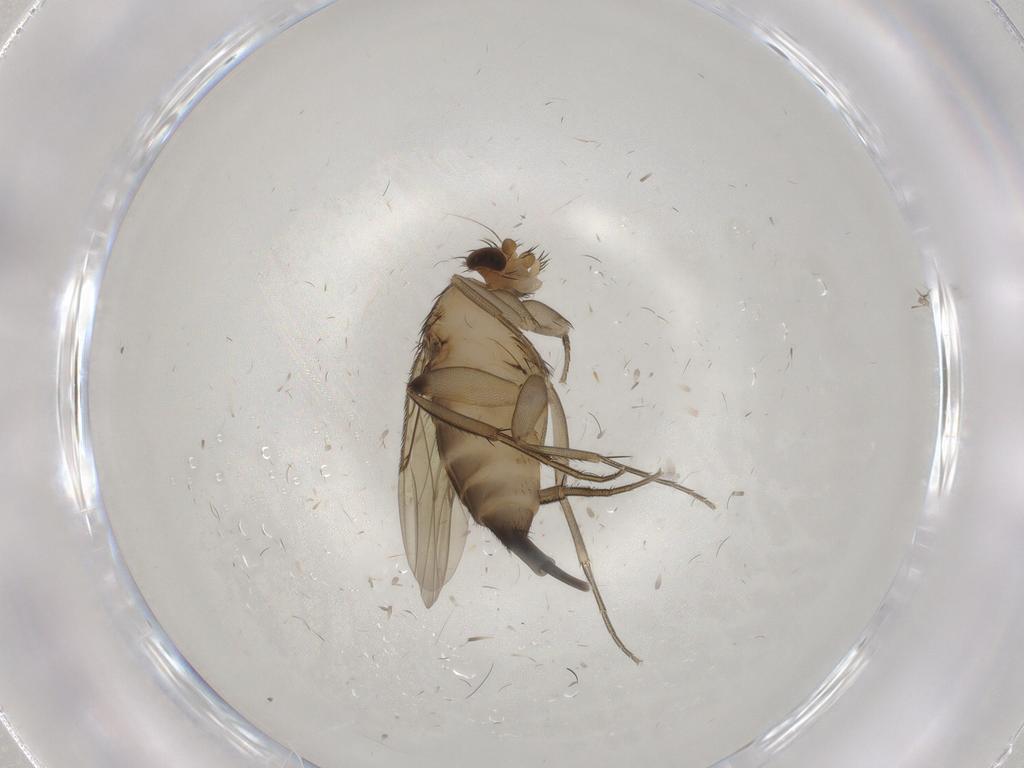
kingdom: Animalia
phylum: Arthropoda
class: Insecta
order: Diptera
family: Phoridae
